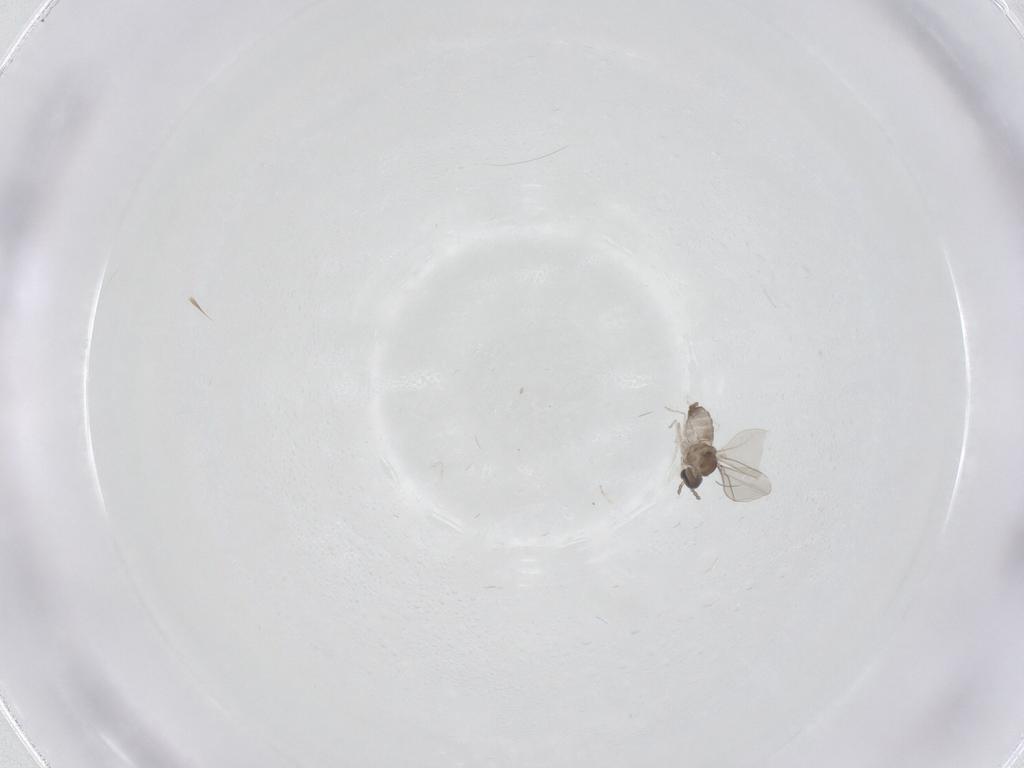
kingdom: Animalia
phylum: Arthropoda
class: Insecta
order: Diptera
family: Cecidomyiidae
